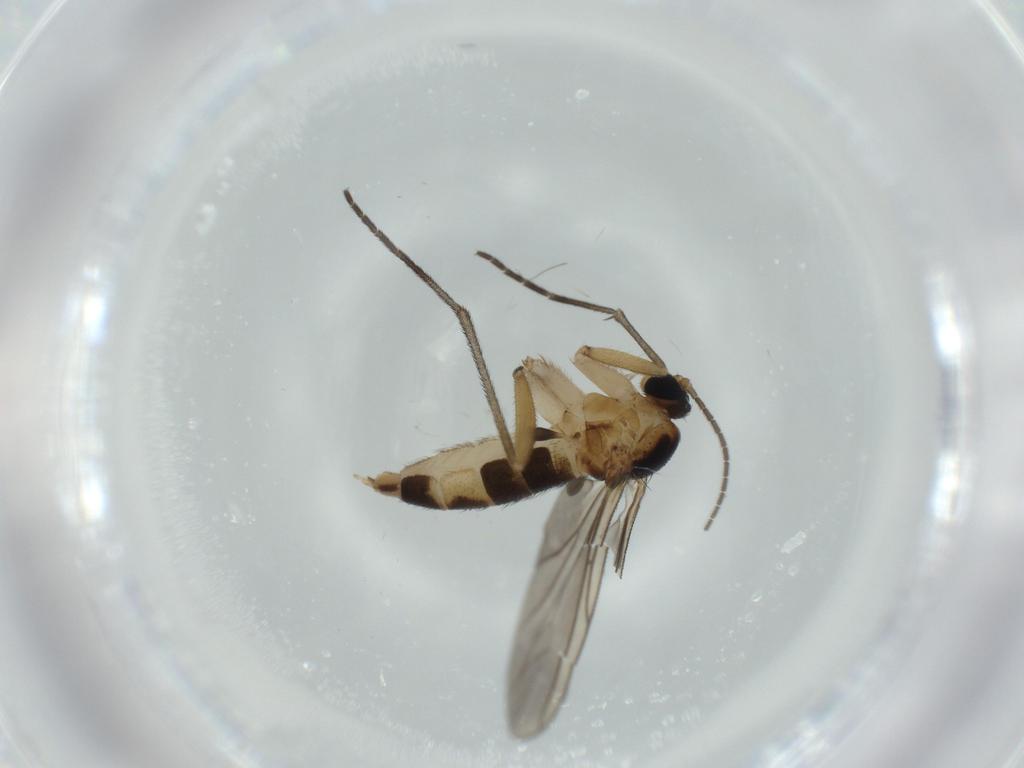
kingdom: Animalia
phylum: Arthropoda
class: Insecta
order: Diptera
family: Sciaridae
